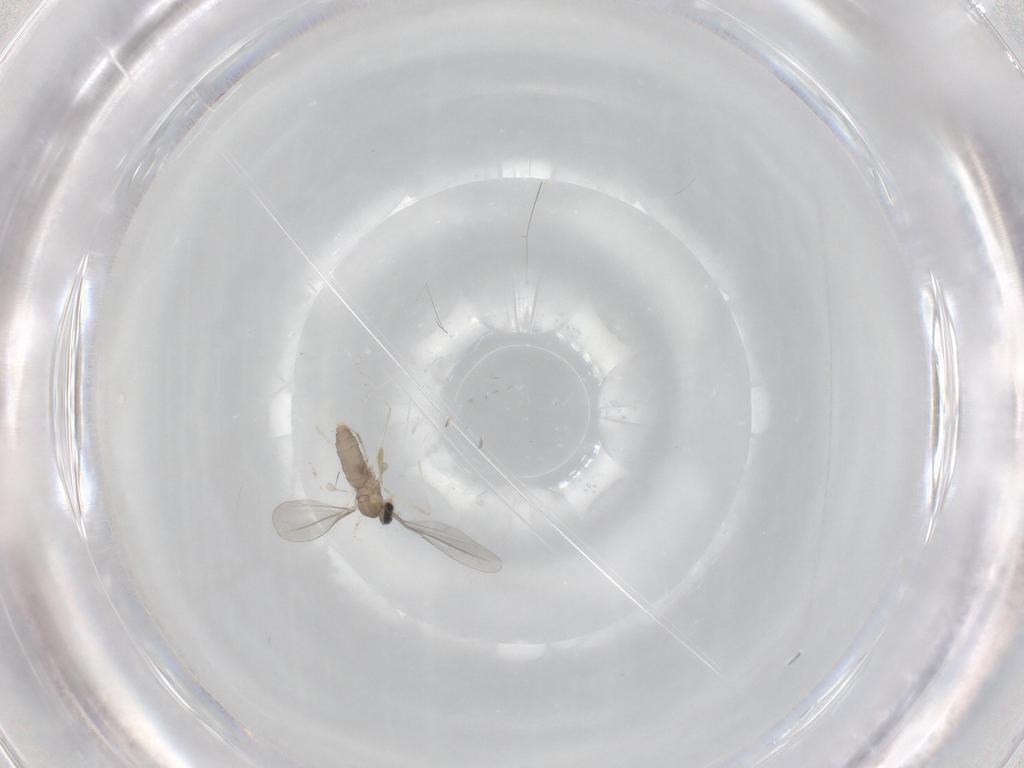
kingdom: Animalia
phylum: Arthropoda
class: Insecta
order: Diptera
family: Cecidomyiidae
